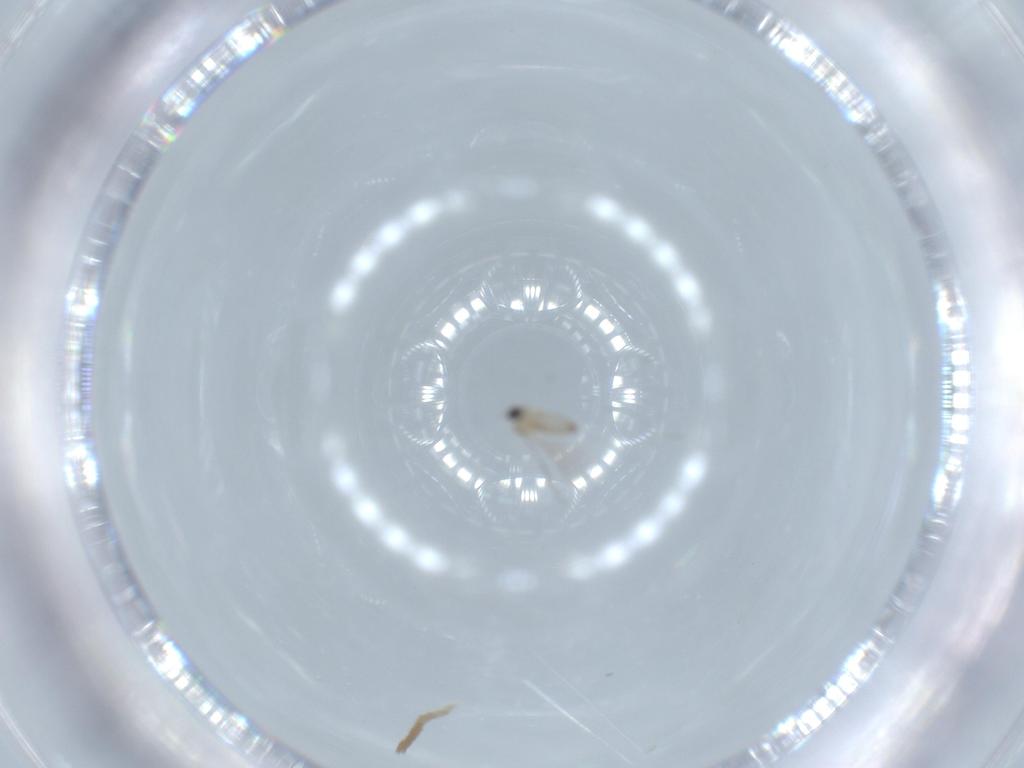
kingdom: Animalia
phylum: Arthropoda
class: Insecta
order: Diptera
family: Cecidomyiidae
